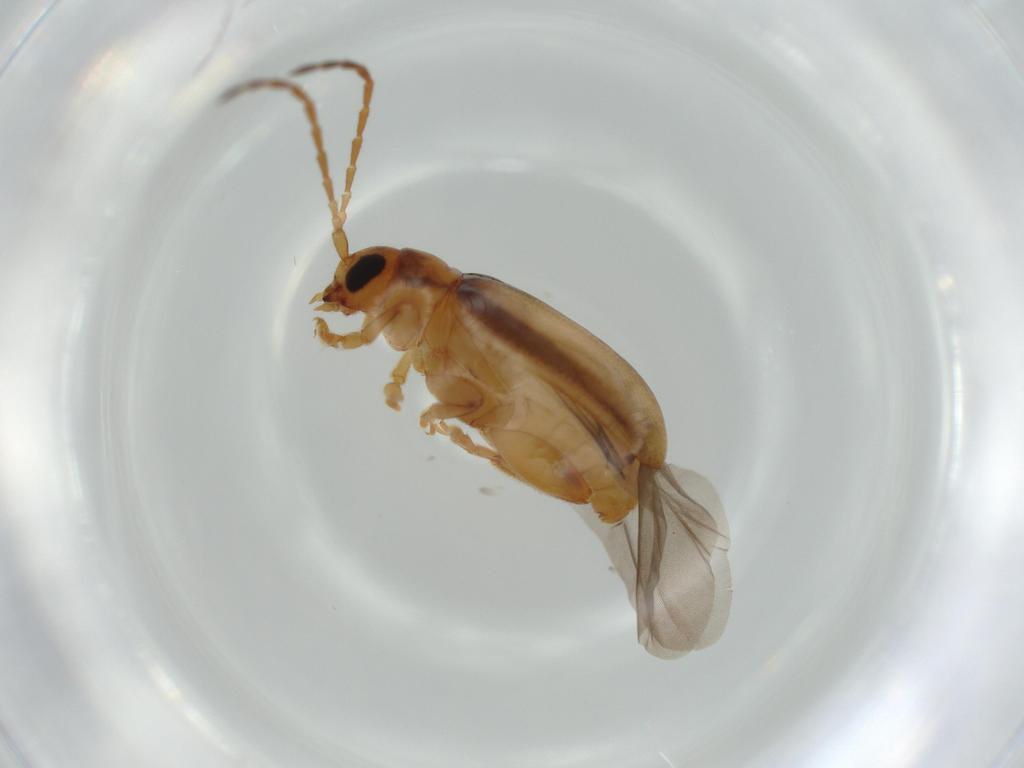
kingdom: Animalia
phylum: Arthropoda
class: Insecta
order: Coleoptera
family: Chrysomelidae
